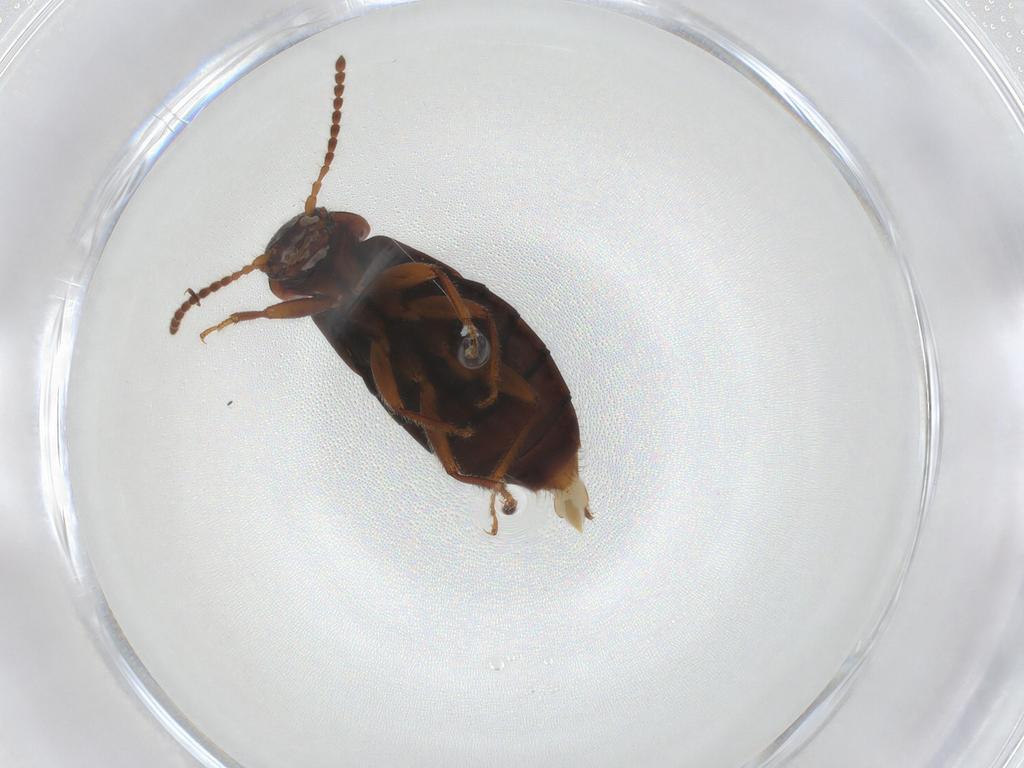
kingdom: Animalia
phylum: Arthropoda
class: Insecta
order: Coleoptera
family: Staphylinidae
